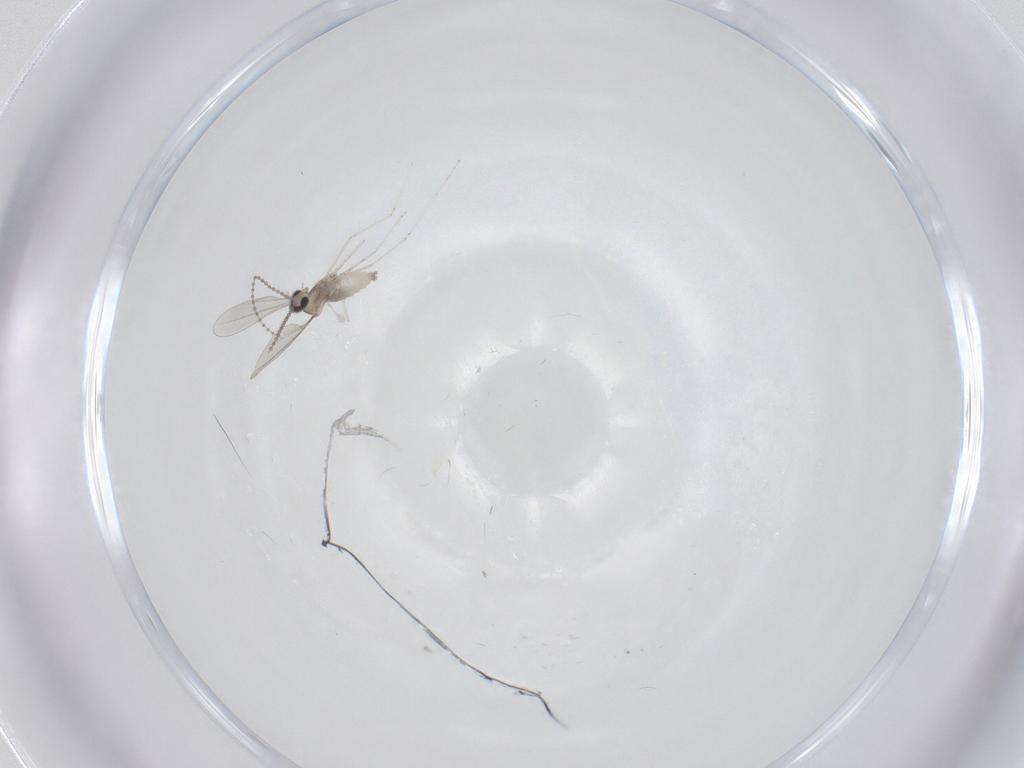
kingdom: Animalia
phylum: Arthropoda
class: Insecta
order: Diptera
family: Cecidomyiidae
